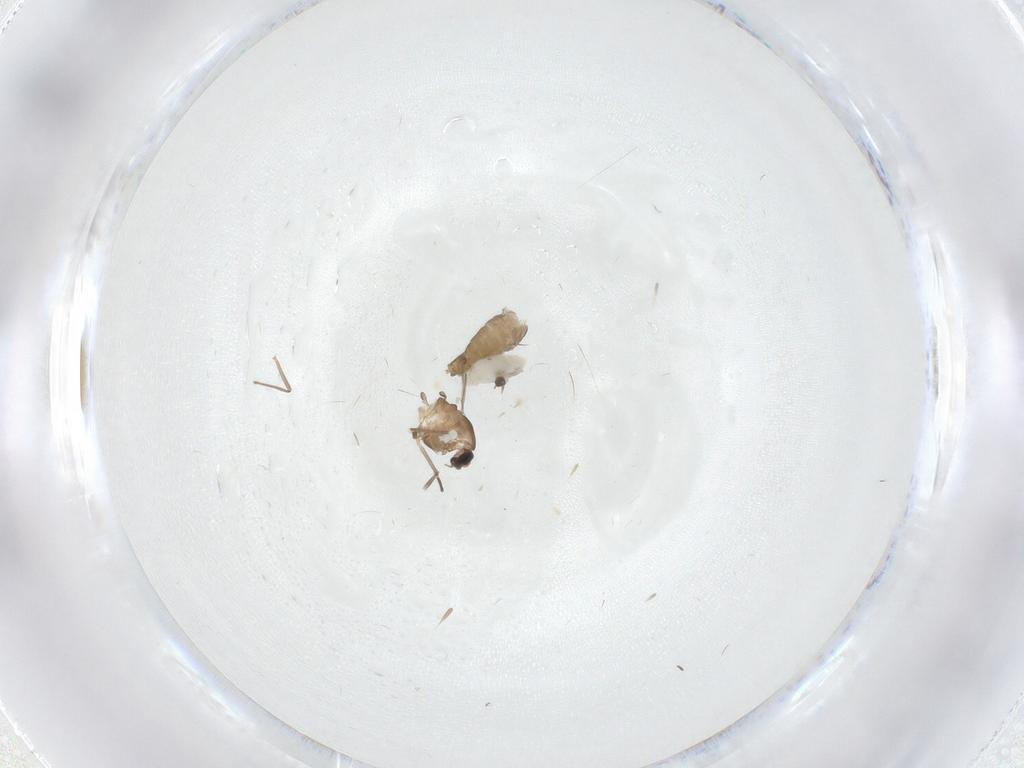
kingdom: Animalia
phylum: Arthropoda
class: Insecta
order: Diptera
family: Chironomidae
